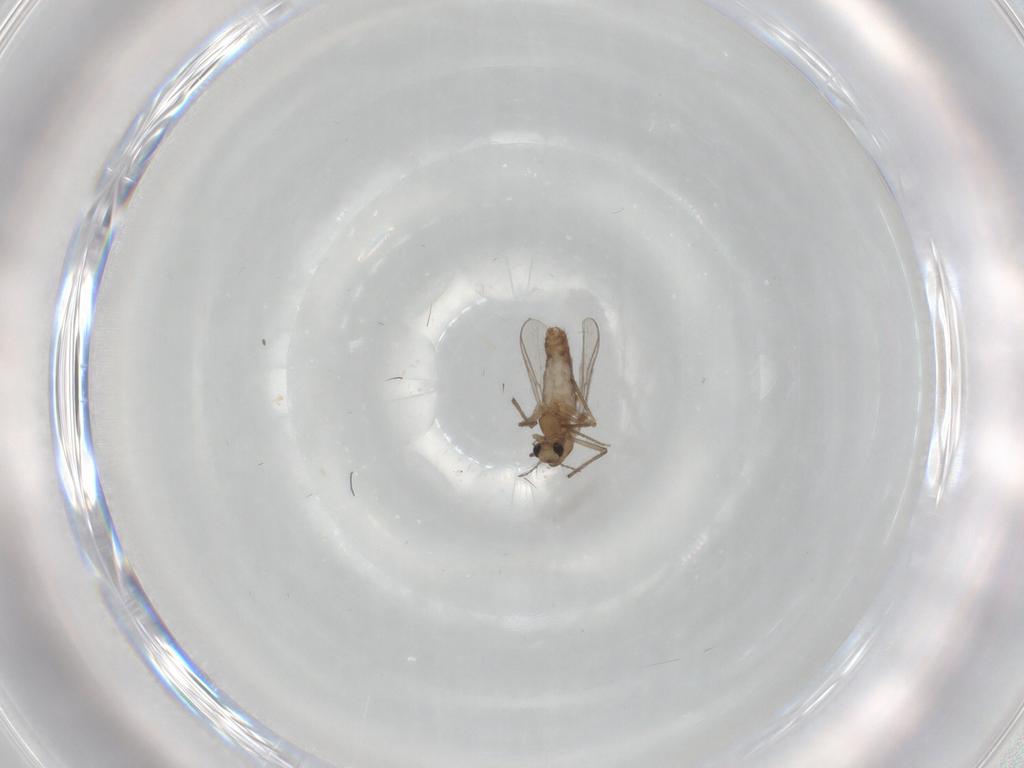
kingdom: Animalia
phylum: Arthropoda
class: Insecta
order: Diptera
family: Chironomidae
